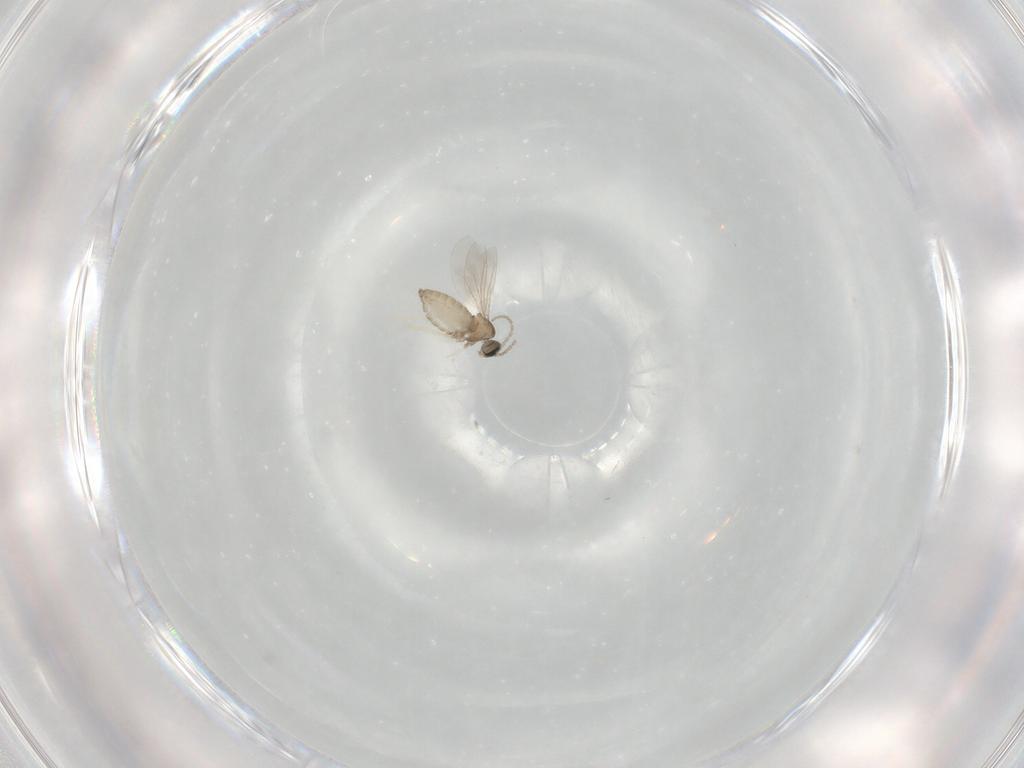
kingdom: Animalia
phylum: Arthropoda
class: Insecta
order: Diptera
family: Cecidomyiidae
